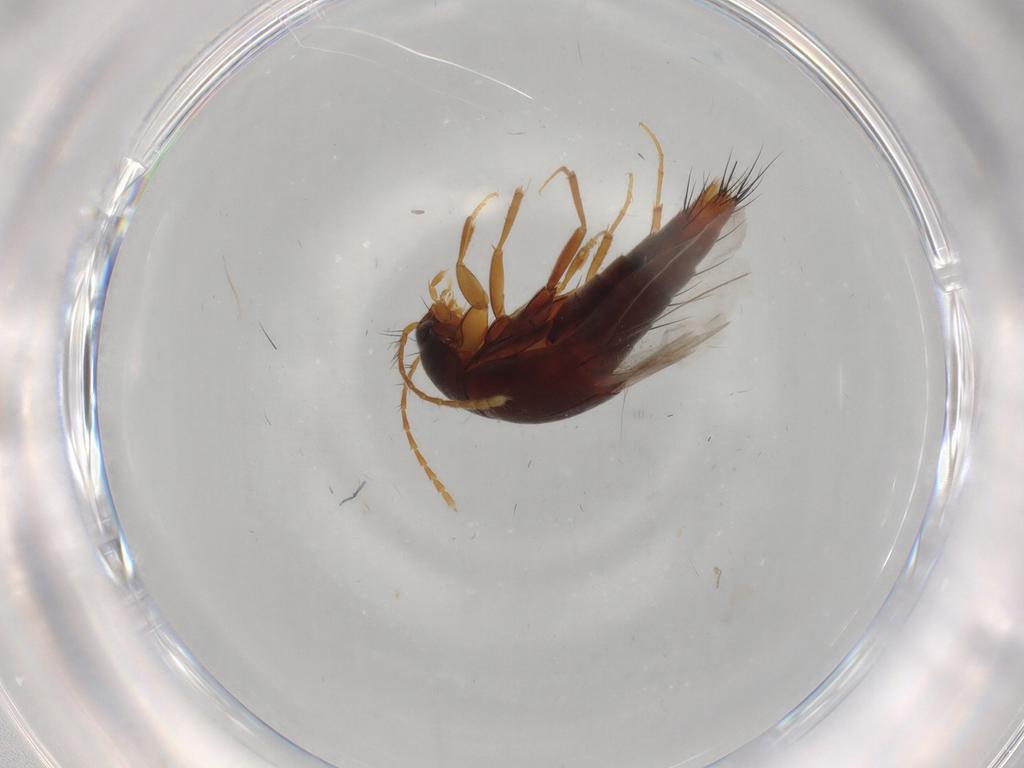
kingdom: Animalia
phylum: Arthropoda
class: Insecta
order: Coleoptera
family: Staphylinidae
